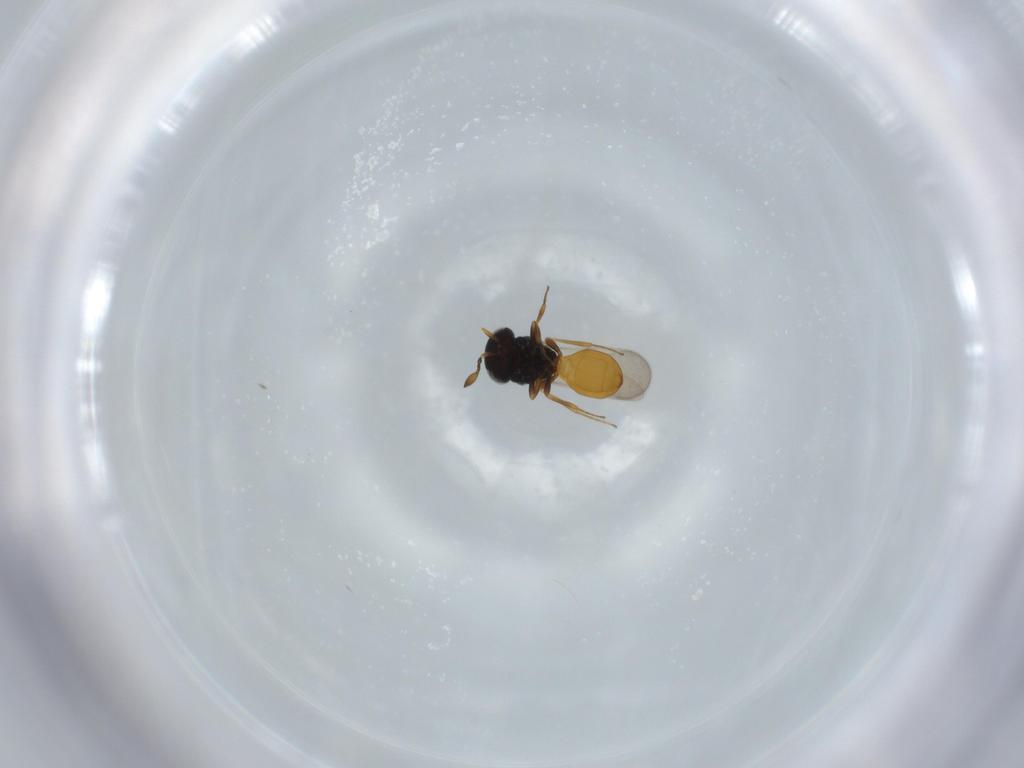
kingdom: Animalia
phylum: Arthropoda
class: Insecta
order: Hymenoptera
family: Scelionidae
